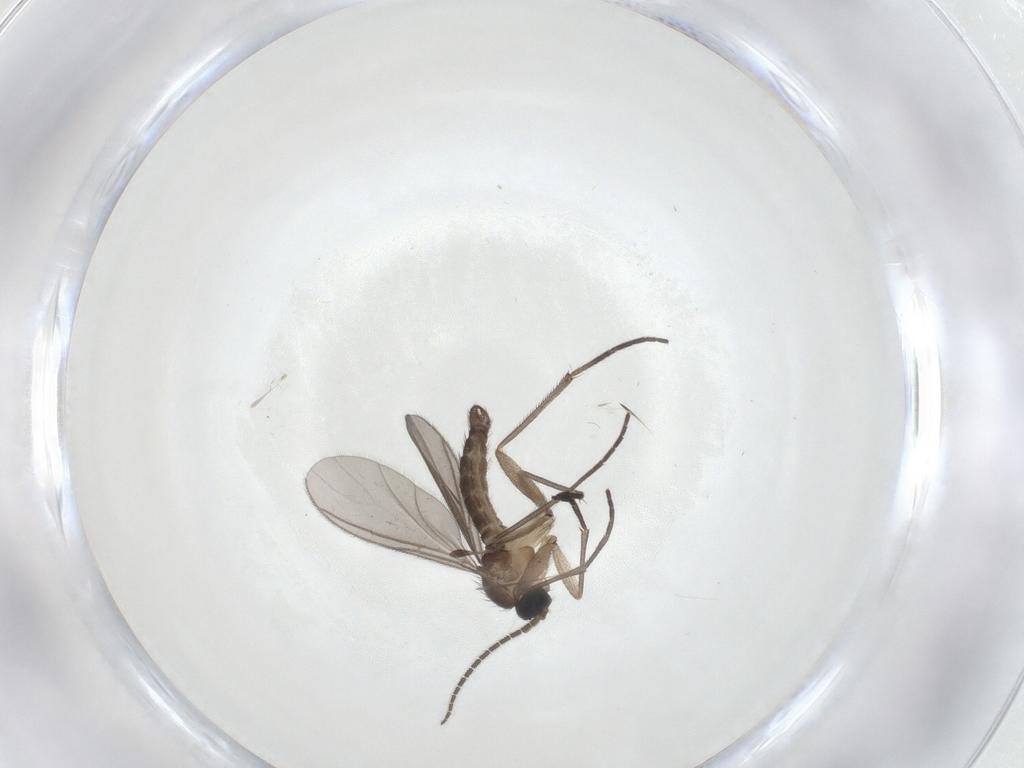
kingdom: Animalia
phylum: Arthropoda
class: Insecta
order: Diptera
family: Sciaridae
